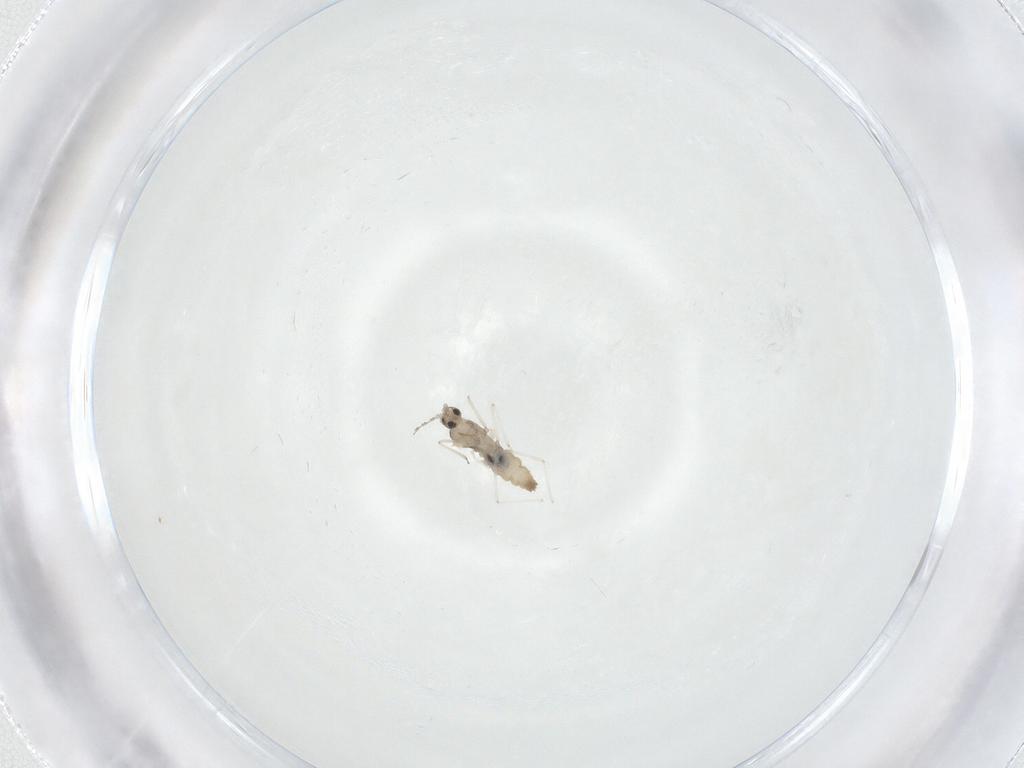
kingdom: Animalia
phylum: Arthropoda
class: Insecta
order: Diptera
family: Cecidomyiidae
